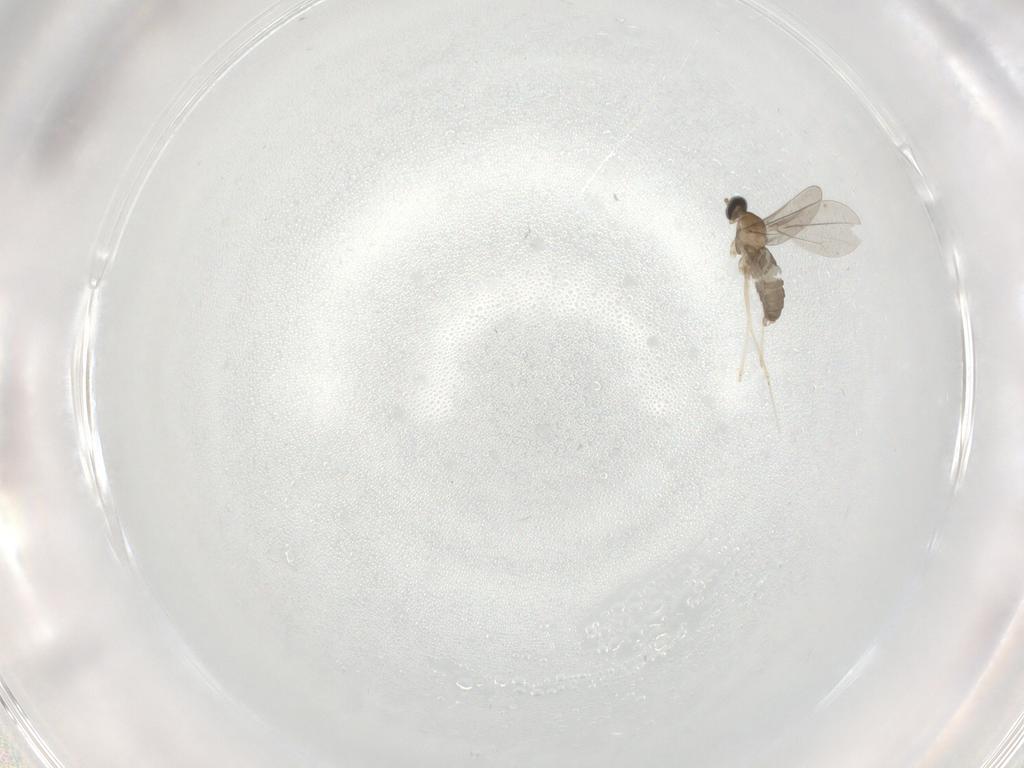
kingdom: Animalia
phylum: Arthropoda
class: Insecta
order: Diptera
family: Cecidomyiidae
